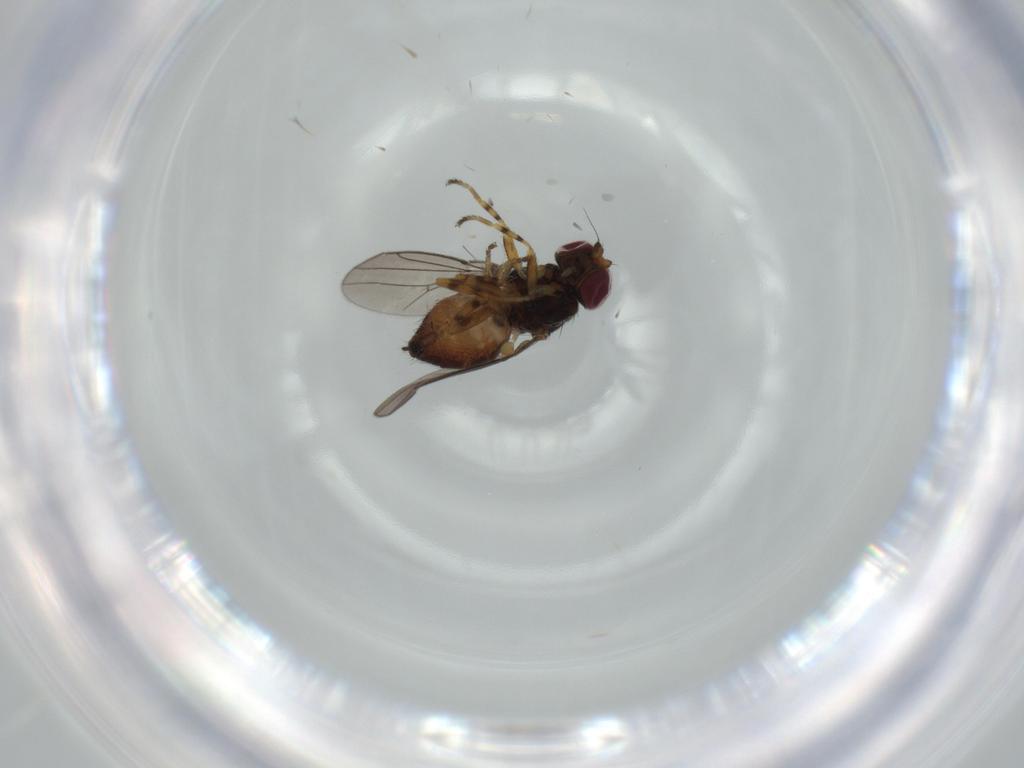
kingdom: Animalia
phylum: Arthropoda
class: Insecta
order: Diptera
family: Chloropidae
